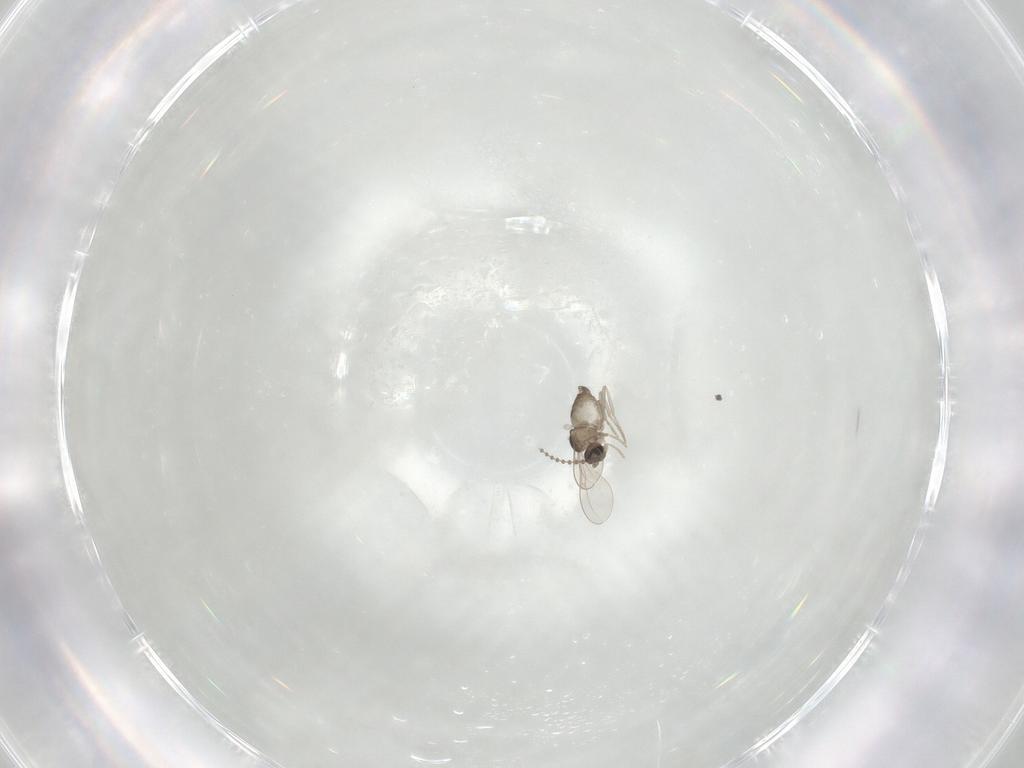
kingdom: Animalia
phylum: Arthropoda
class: Insecta
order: Diptera
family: Cecidomyiidae
